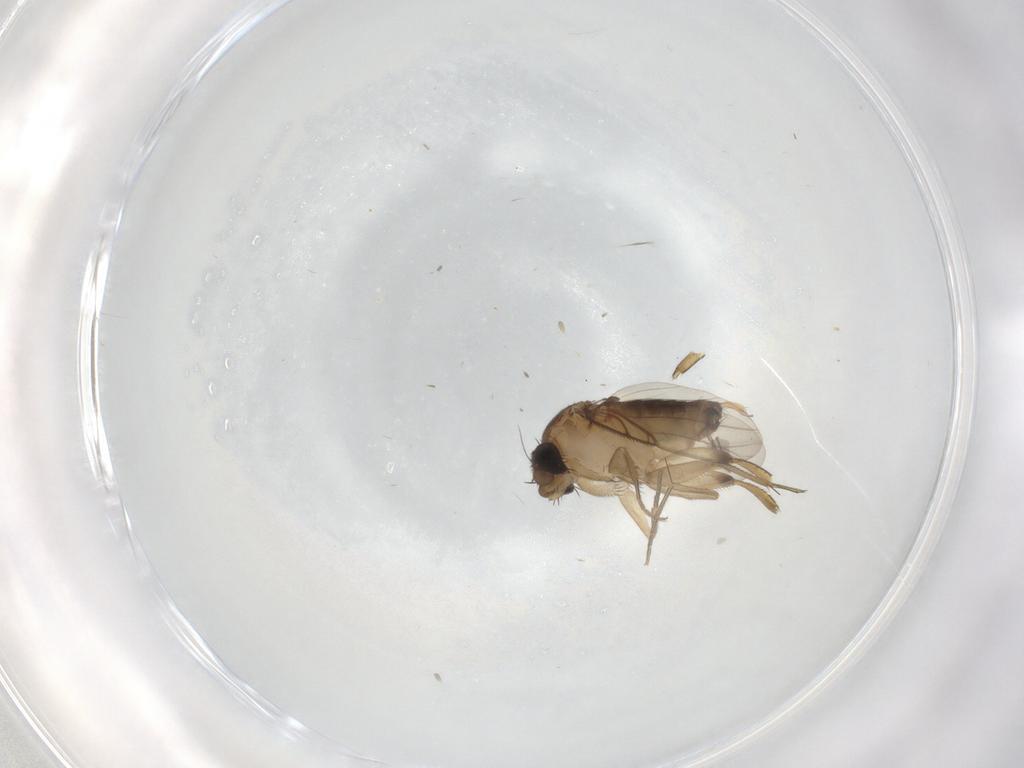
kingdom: Animalia
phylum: Arthropoda
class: Insecta
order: Diptera
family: Phoridae
